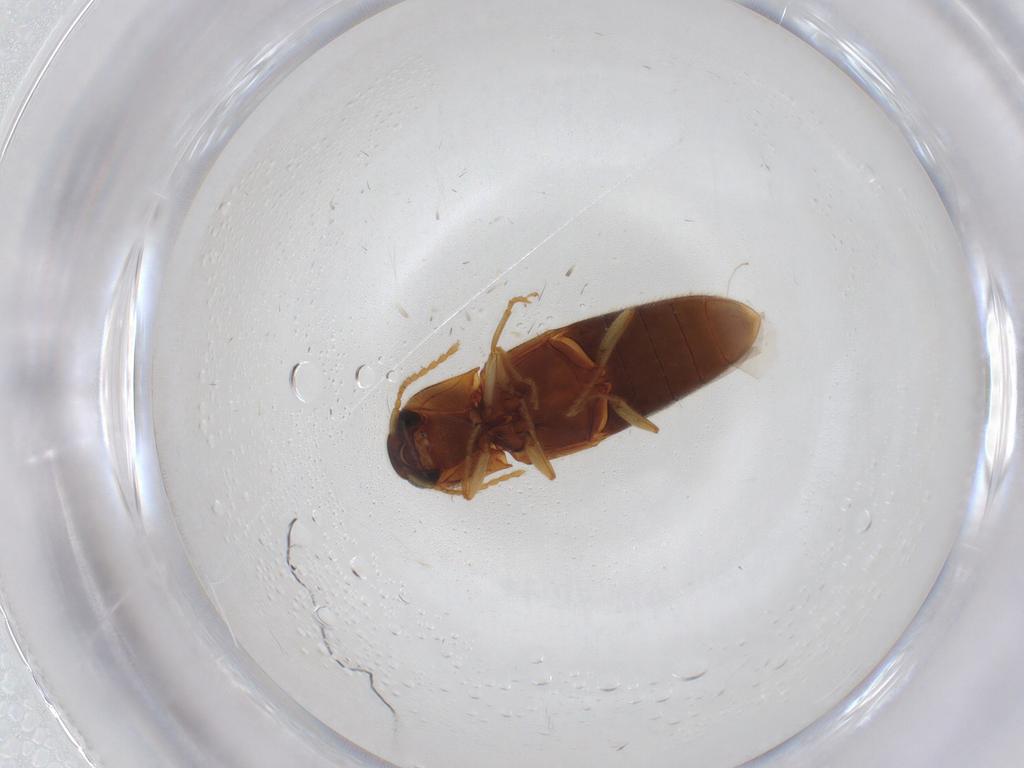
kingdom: Animalia
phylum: Arthropoda
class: Insecta
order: Coleoptera
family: Elateridae
